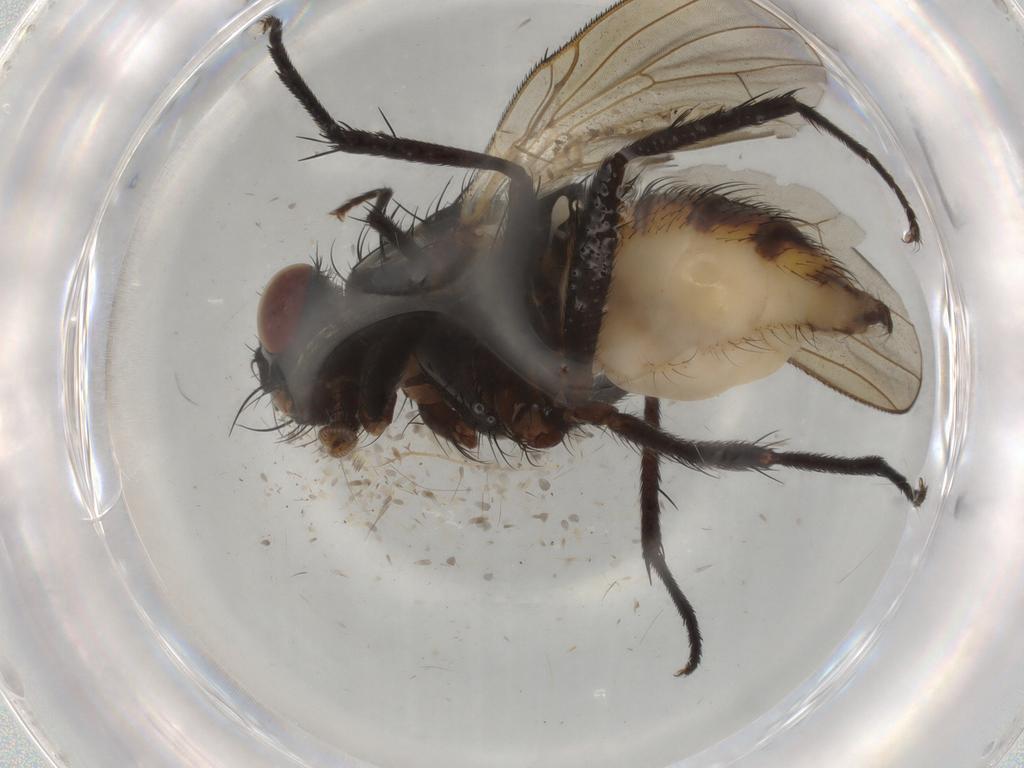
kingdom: Animalia
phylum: Arthropoda
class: Insecta
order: Diptera
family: Anthomyiidae
